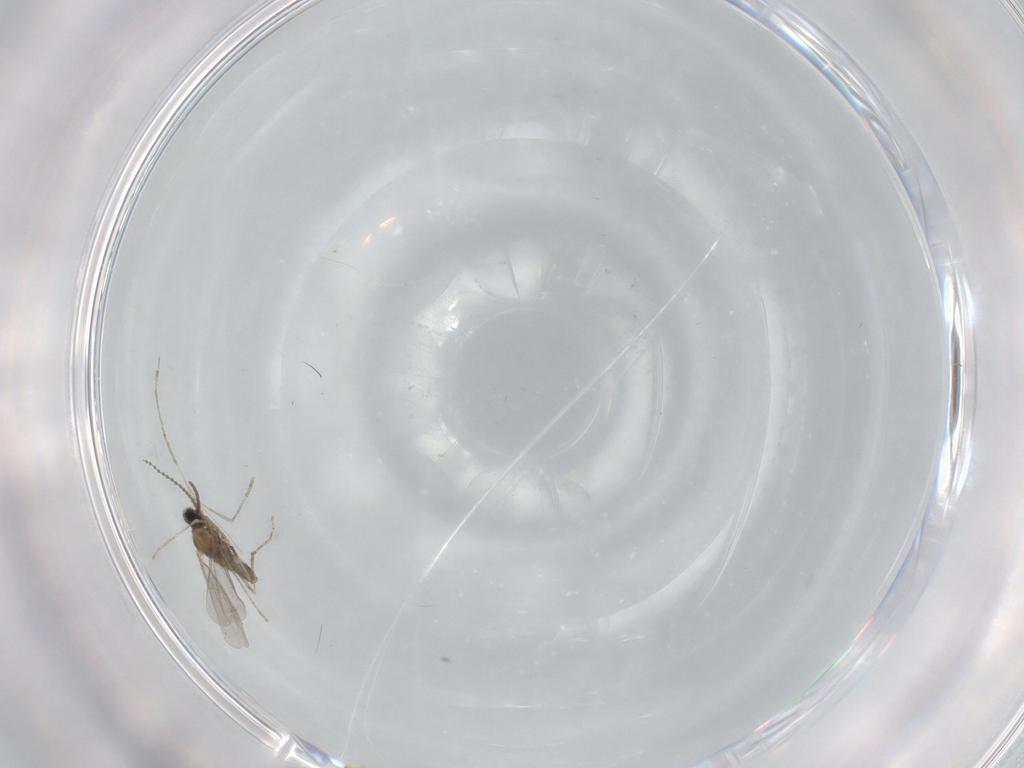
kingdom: Animalia
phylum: Arthropoda
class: Insecta
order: Diptera
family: Cecidomyiidae
